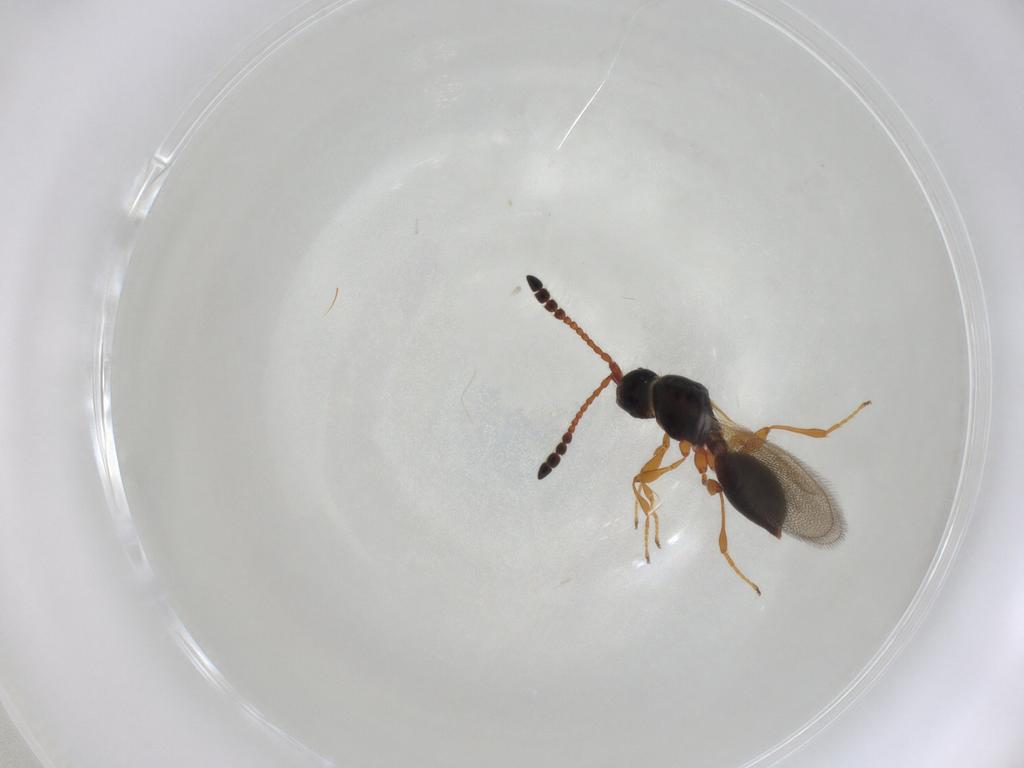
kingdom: Animalia
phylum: Arthropoda
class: Insecta
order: Hymenoptera
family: Diapriidae
